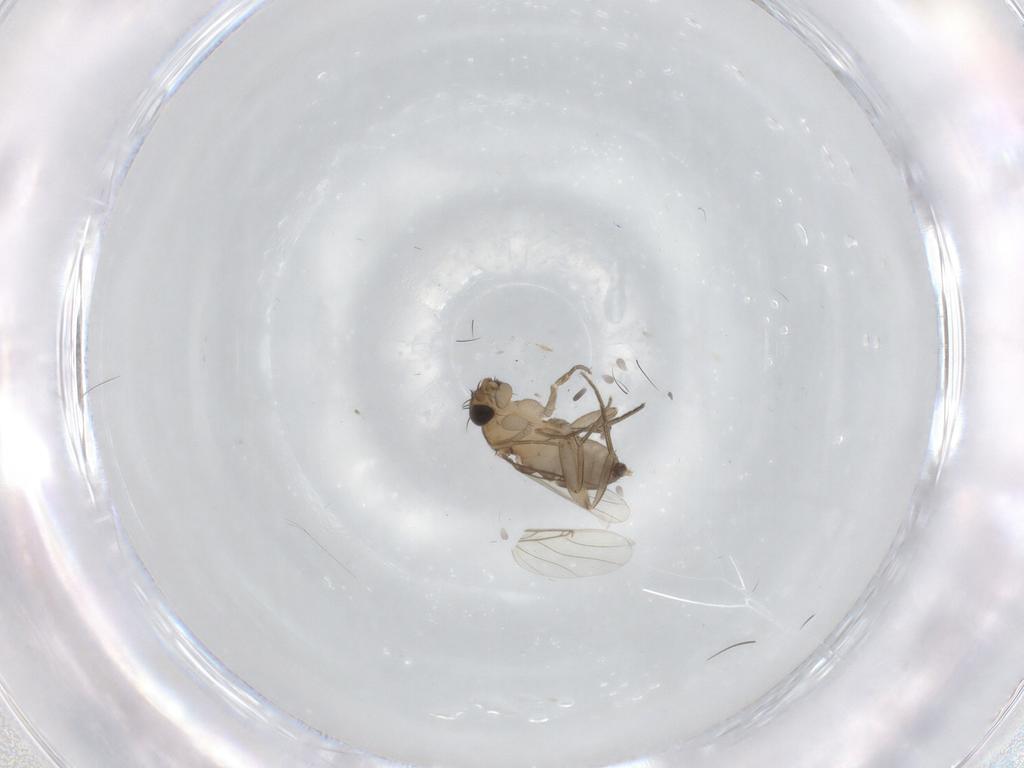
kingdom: Animalia
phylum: Arthropoda
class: Insecta
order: Diptera
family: Phoridae
